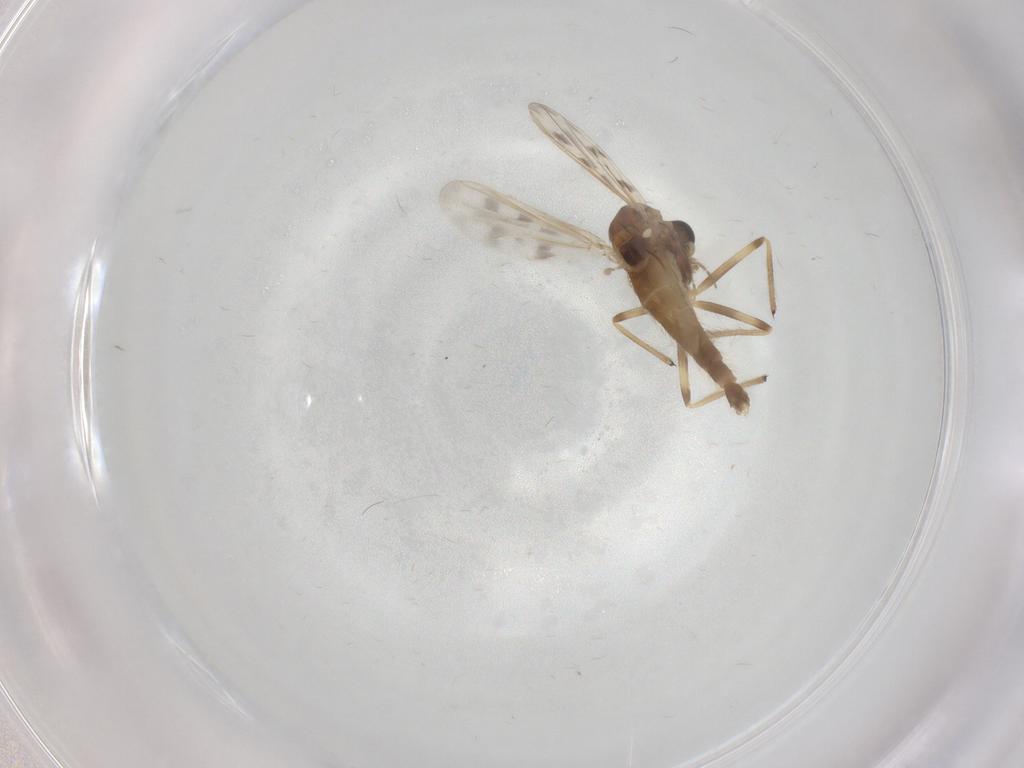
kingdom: Animalia
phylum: Arthropoda
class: Insecta
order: Diptera
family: Chironomidae
